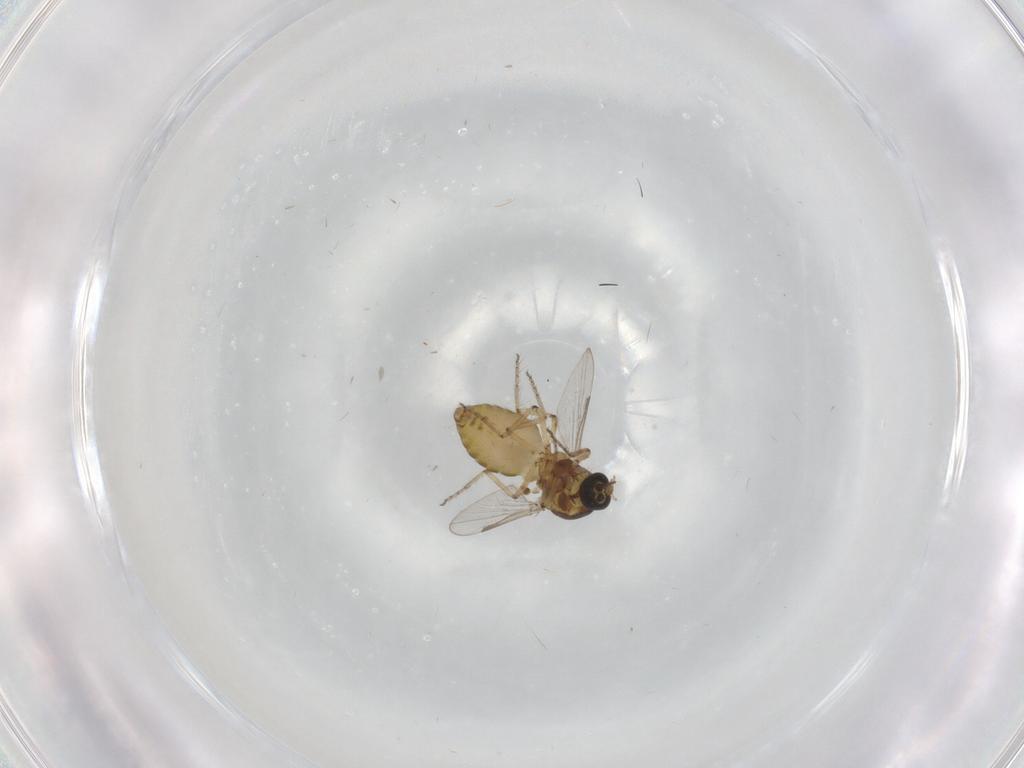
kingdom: Animalia
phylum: Arthropoda
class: Insecta
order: Diptera
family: Ceratopogonidae
